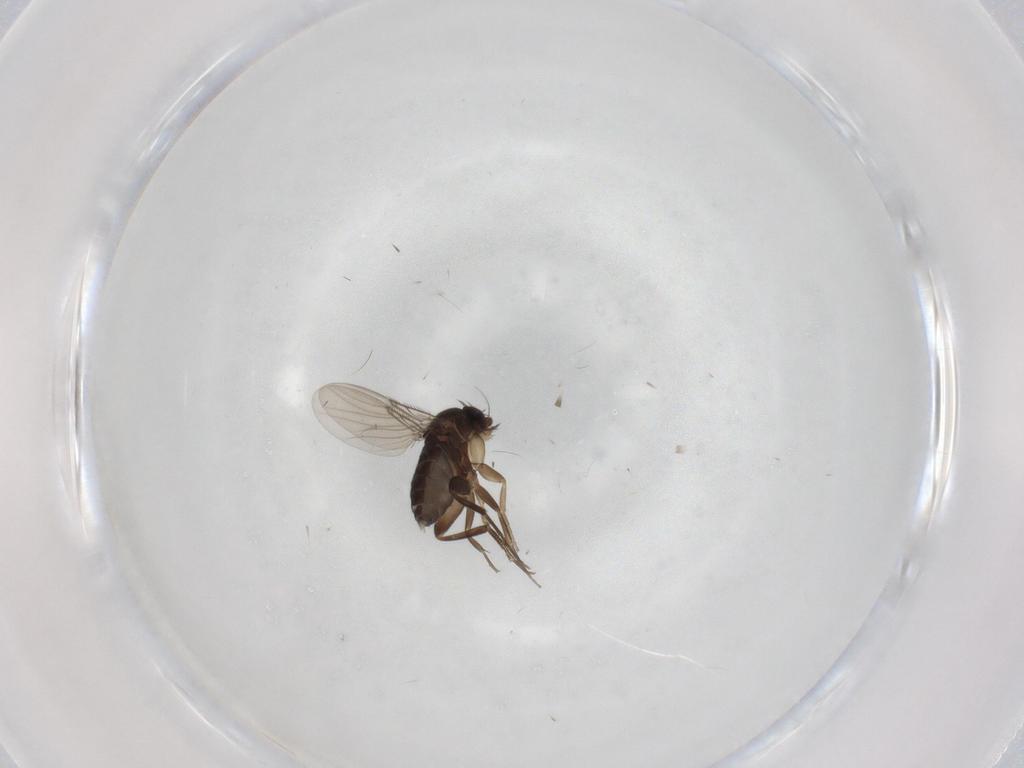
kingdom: Animalia
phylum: Arthropoda
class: Insecta
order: Diptera
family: Phoridae
